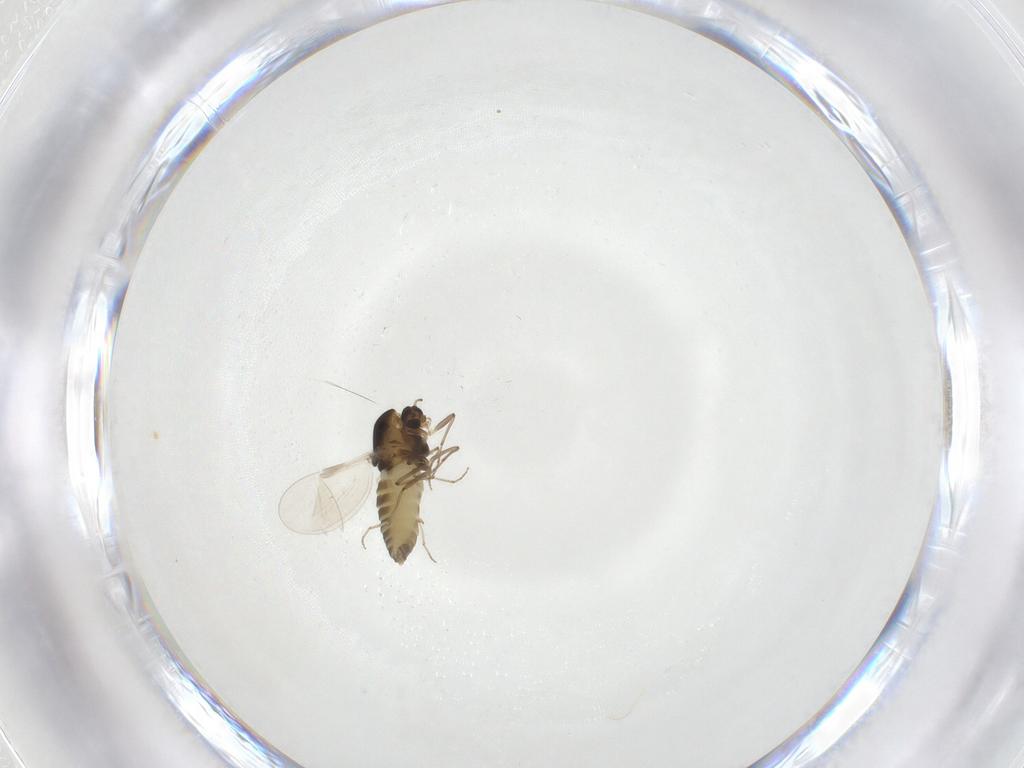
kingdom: Animalia
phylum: Arthropoda
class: Insecta
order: Diptera
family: Chironomidae
